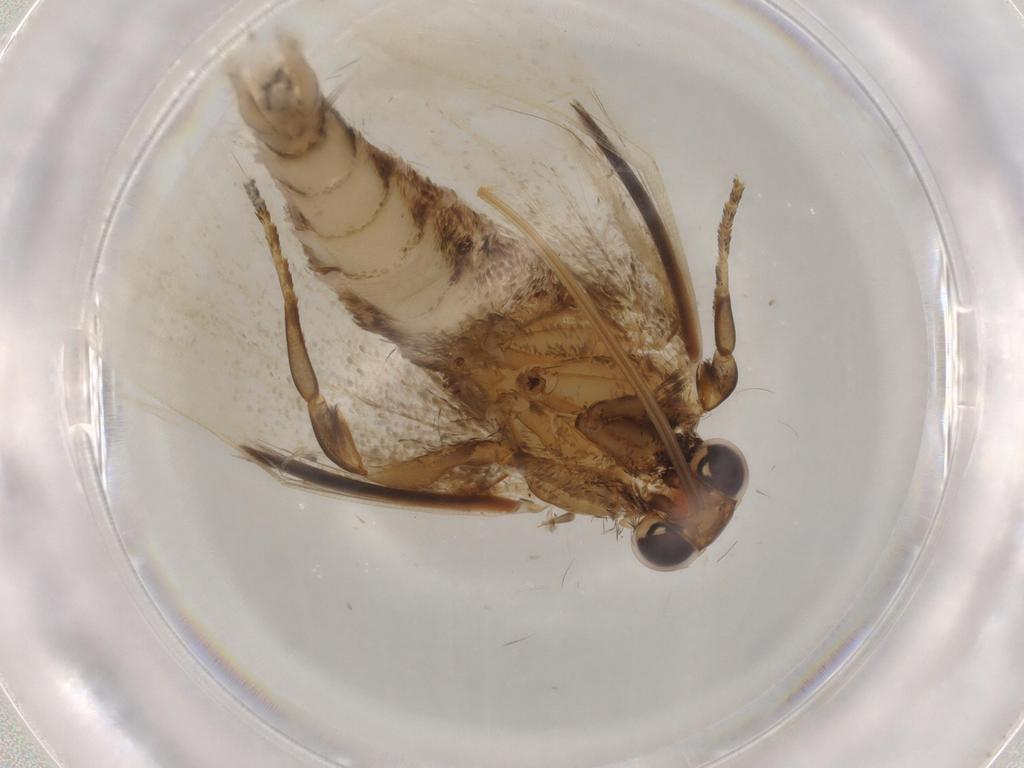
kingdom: Animalia
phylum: Arthropoda
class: Insecta
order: Lepidoptera
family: Noctuidae
